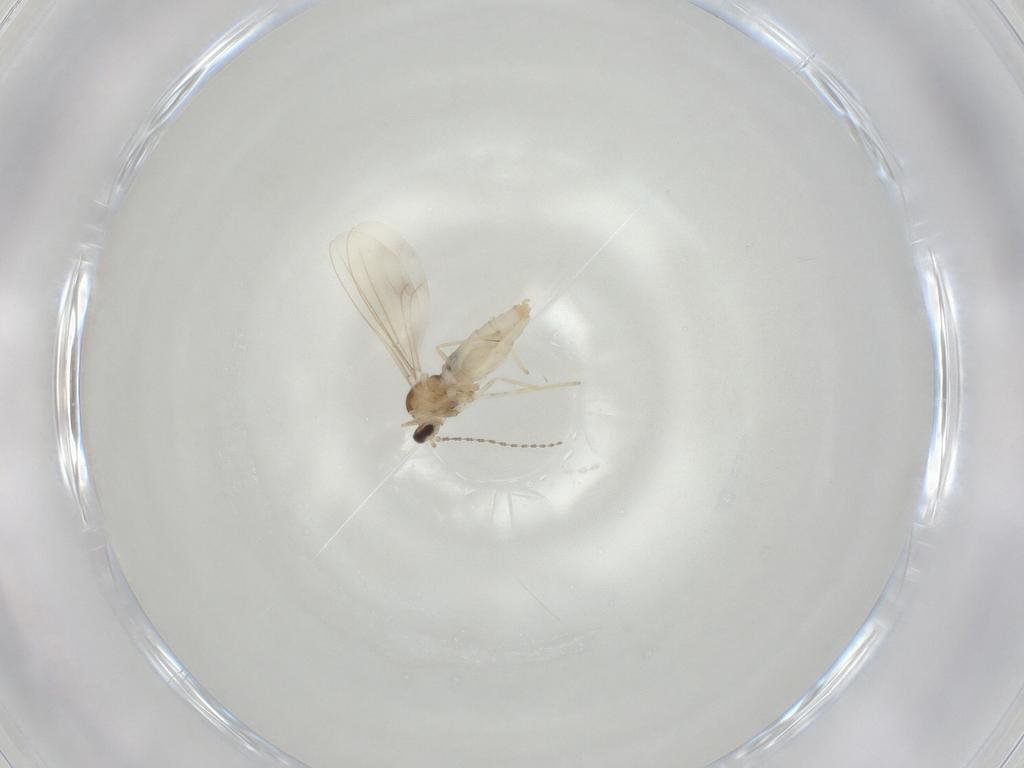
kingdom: Animalia
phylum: Arthropoda
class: Insecta
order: Diptera
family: Cecidomyiidae
